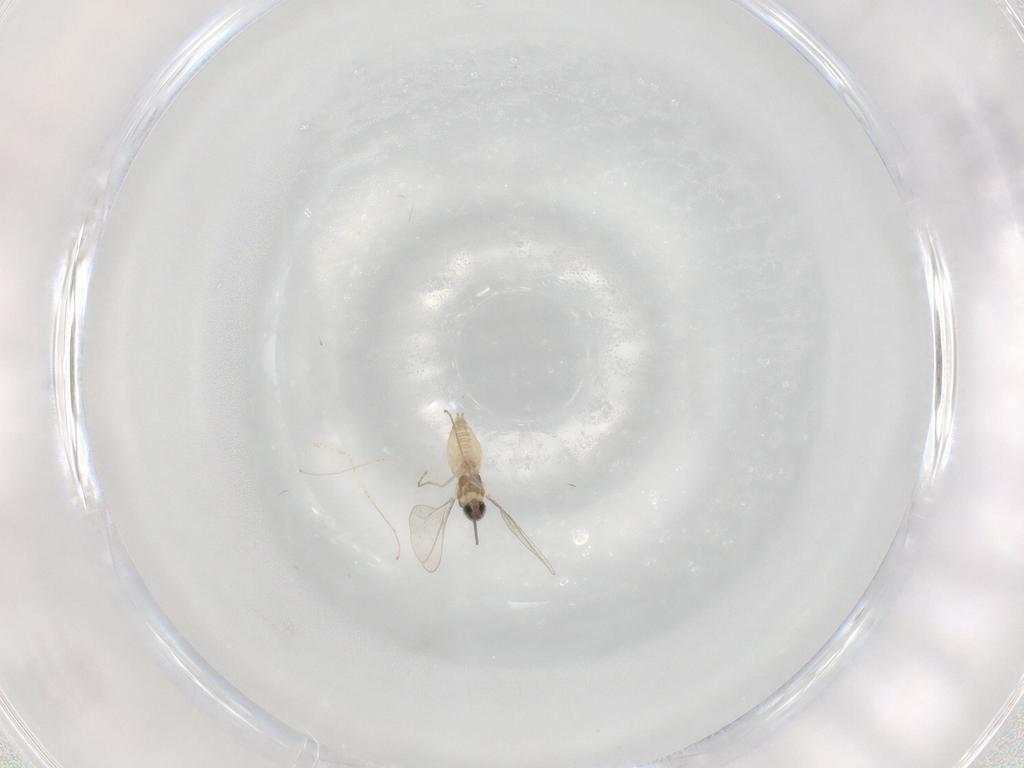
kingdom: Animalia
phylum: Arthropoda
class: Insecta
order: Diptera
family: Cecidomyiidae
